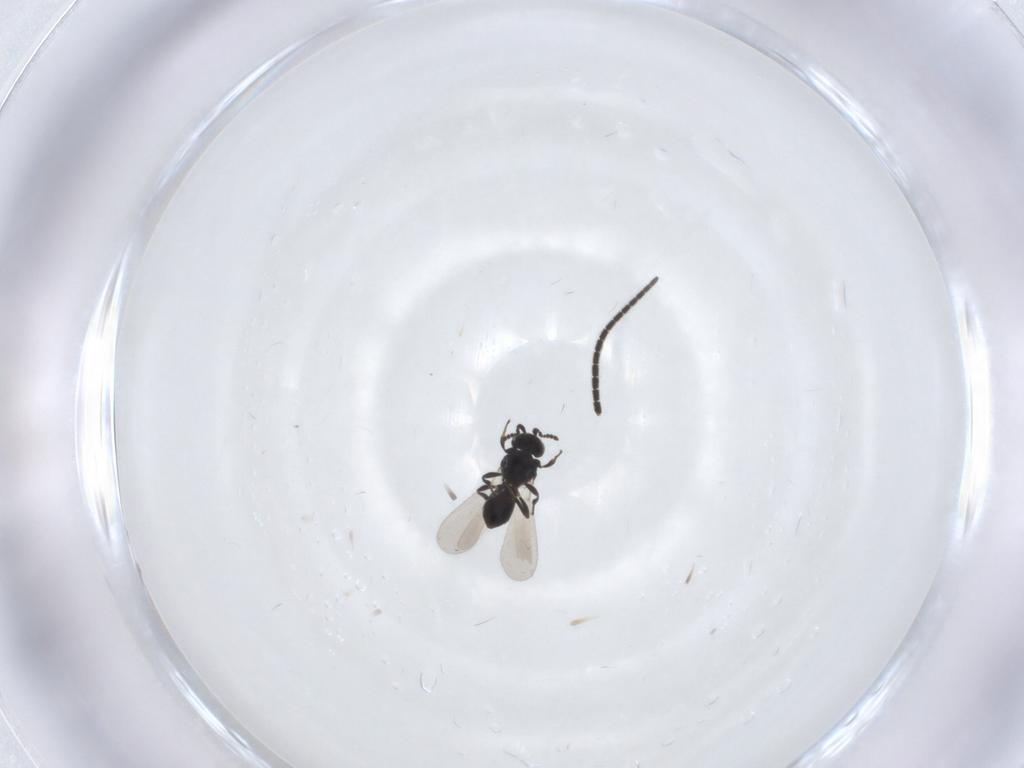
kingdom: Animalia
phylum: Arthropoda
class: Insecta
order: Hymenoptera
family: Platygastridae
